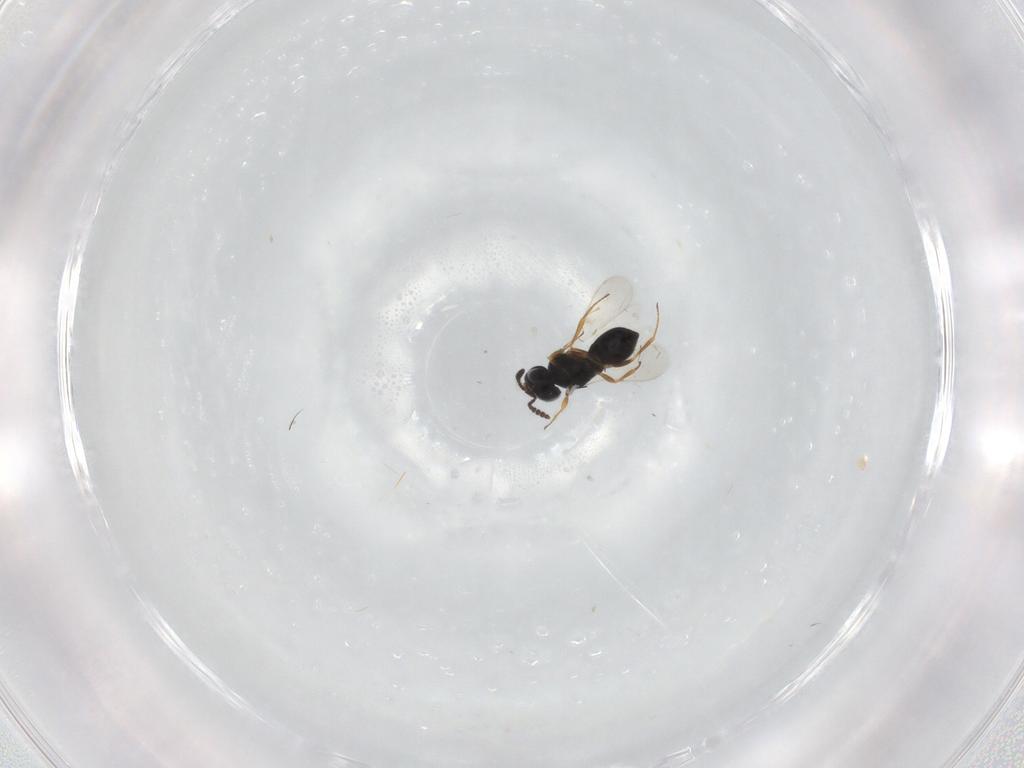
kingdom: Animalia
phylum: Arthropoda
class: Insecta
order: Hymenoptera
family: Scelionidae
